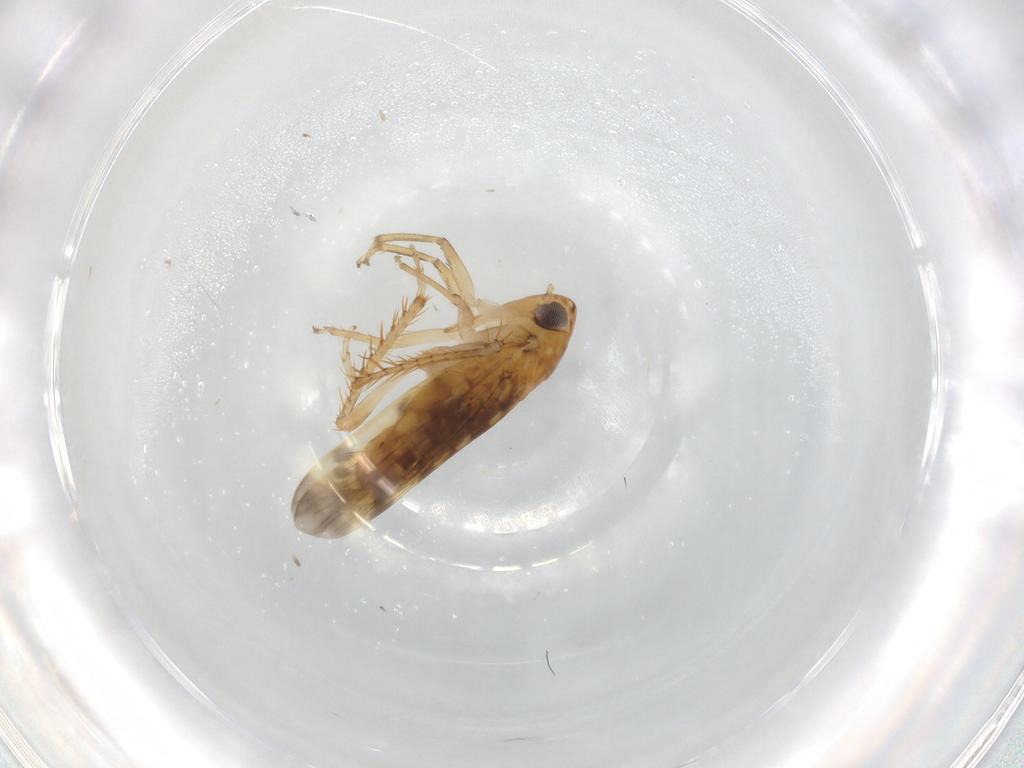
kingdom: Animalia
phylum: Arthropoda
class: Insecta
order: Hemiptera
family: Cicadellidae
